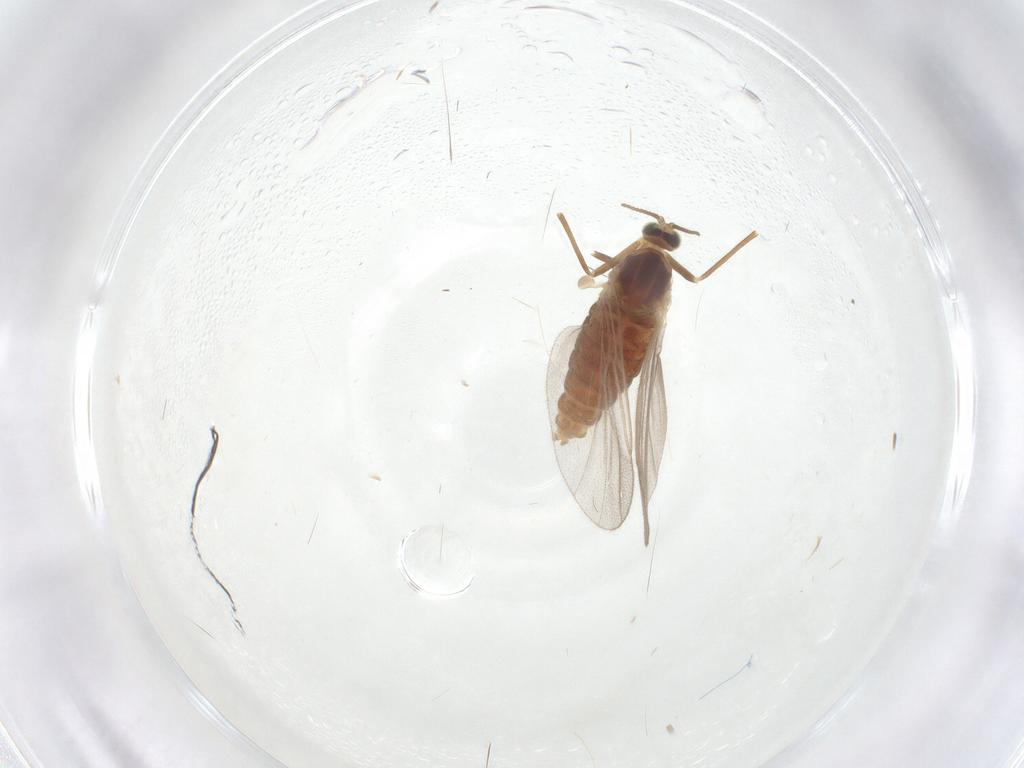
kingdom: Animalia
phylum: Arthropoda
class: Insecta
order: Diptera
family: Cecidomyiidae
